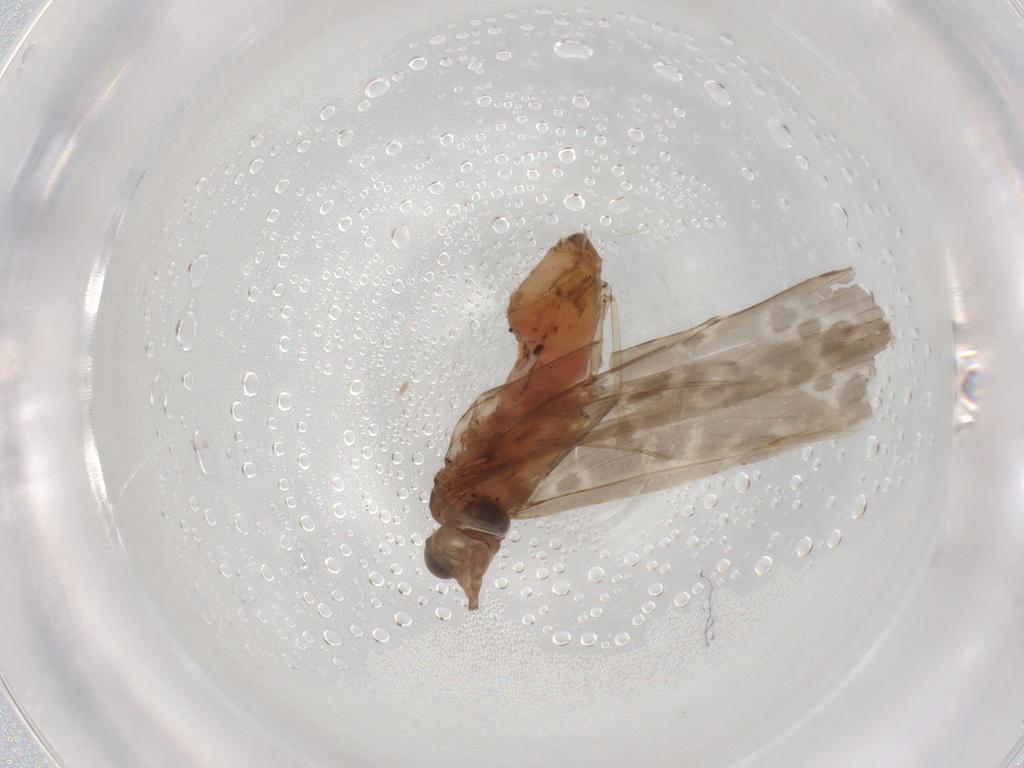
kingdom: Animalia
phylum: Arthropoda
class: Insecta
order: Trichoptera
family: Leptoceridae
